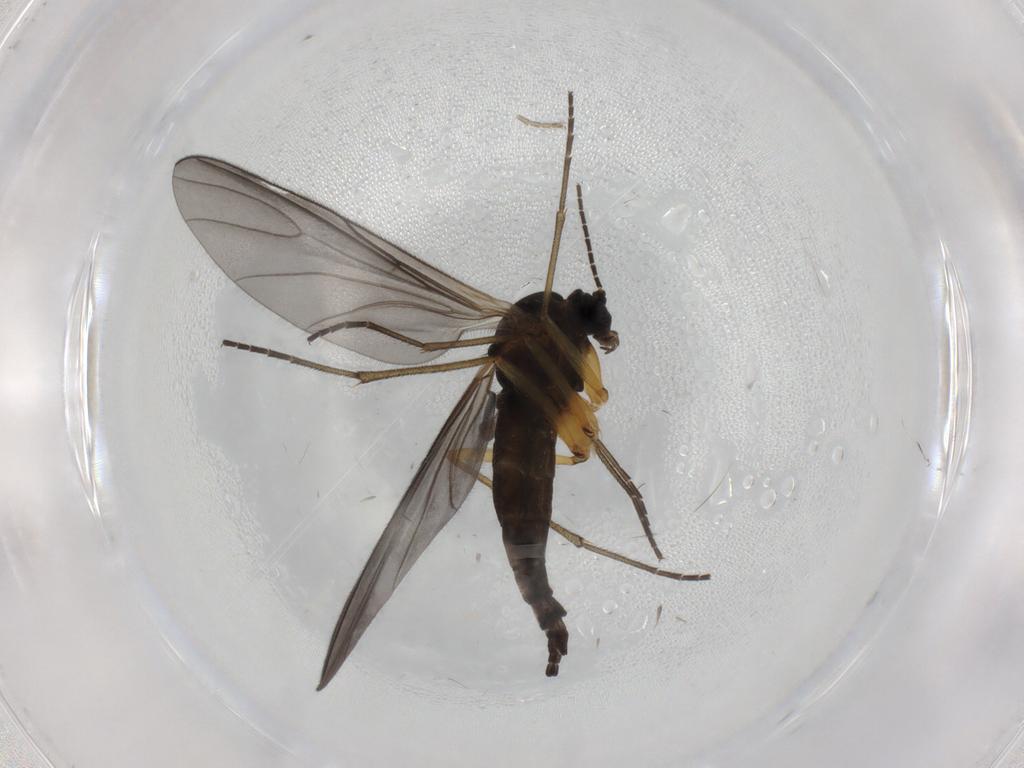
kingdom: Animalia
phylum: Arthropoda
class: Insecta
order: Diptera
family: Sciaridae
